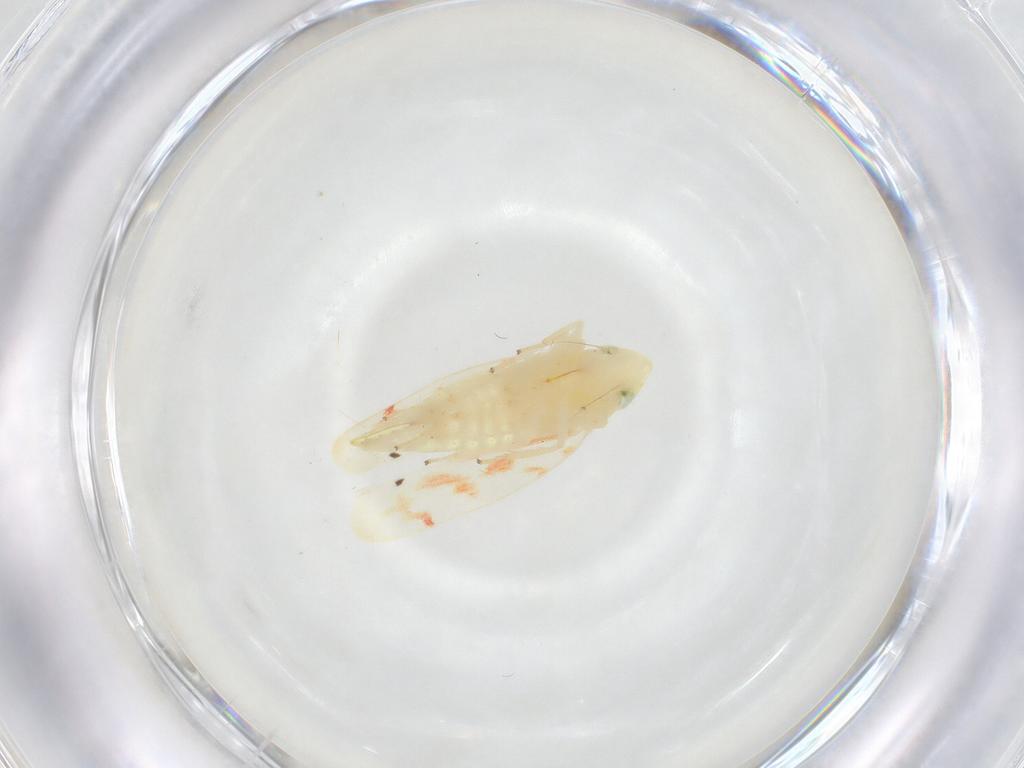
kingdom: Animalia
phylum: Arthropoda
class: Insecta
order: Hemiptera
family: Cicadellidae
